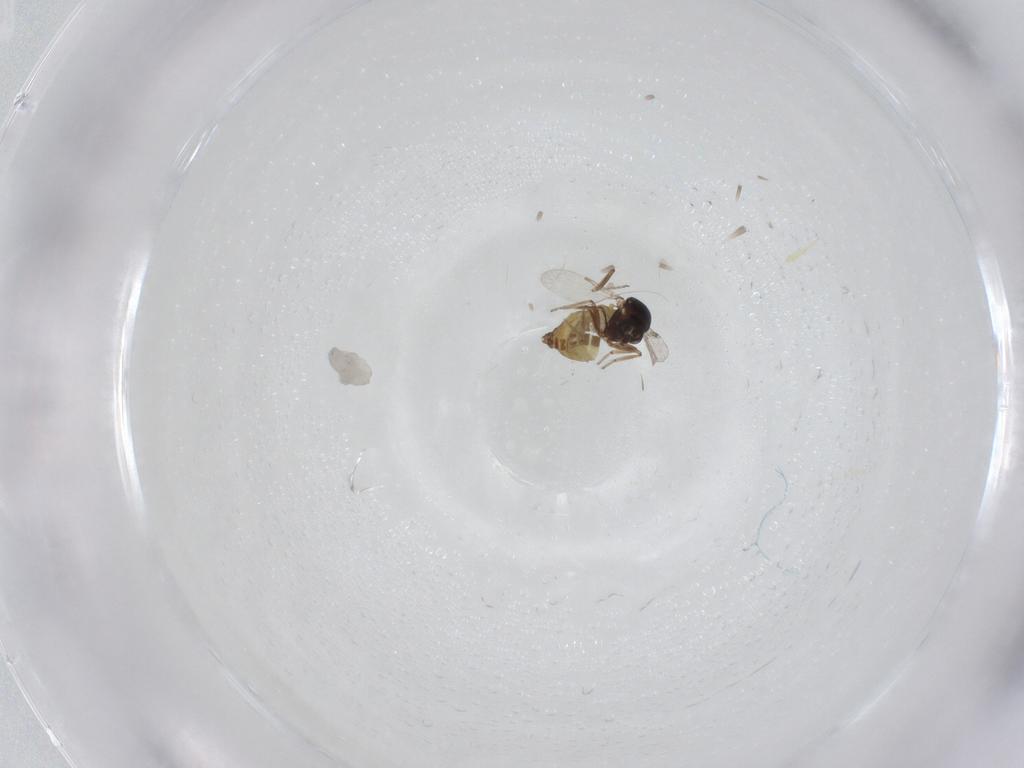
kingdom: Animalia
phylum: Arthropoda
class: Insecta
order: Diptera
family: Ceratopogonidae
